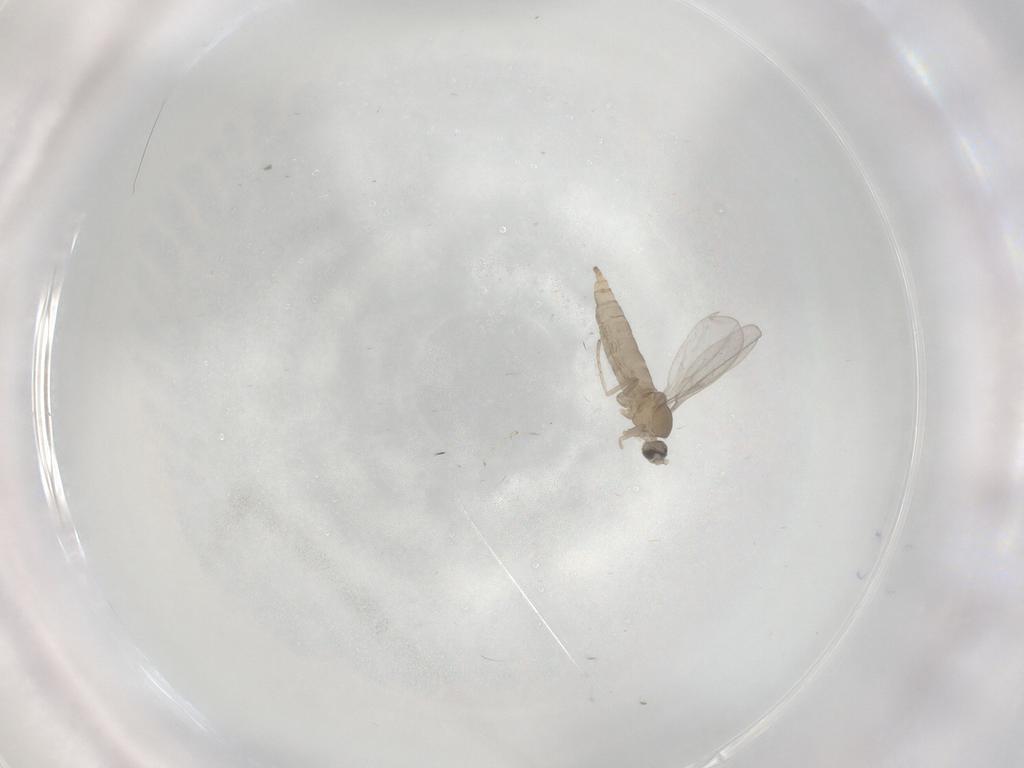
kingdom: Animalia
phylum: Arthropoda
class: Insecta
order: Diptera
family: Cecidomyiidae
